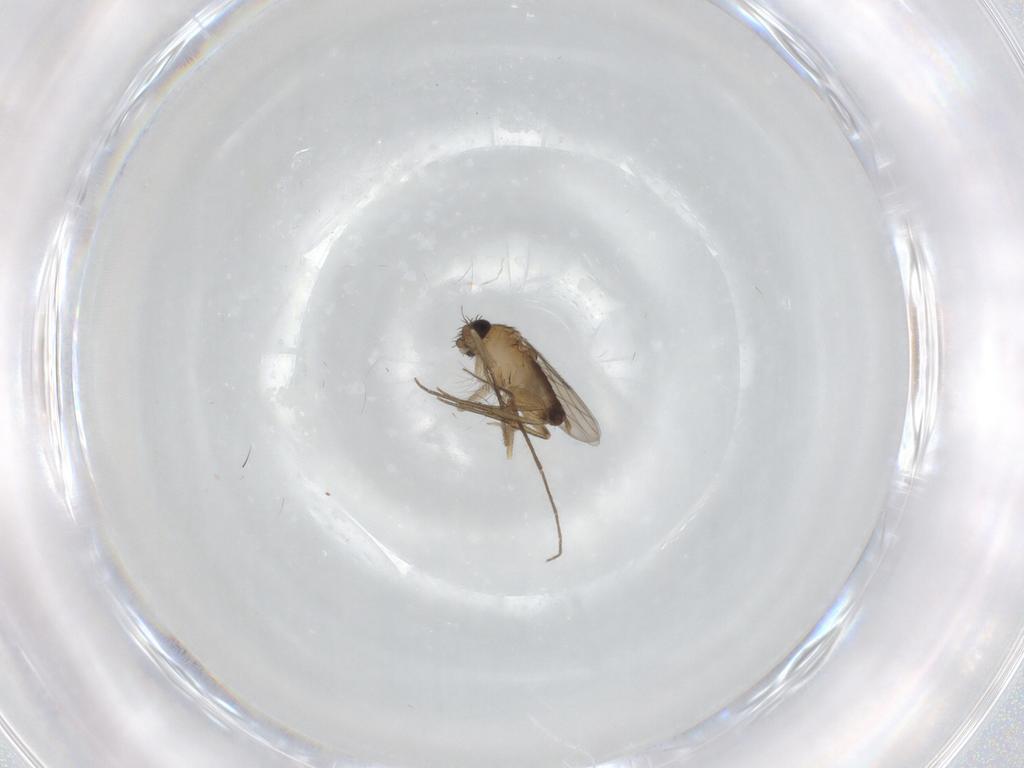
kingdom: Animalia
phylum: Arthropoda
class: Insecta
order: Diptera
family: Phoridae
